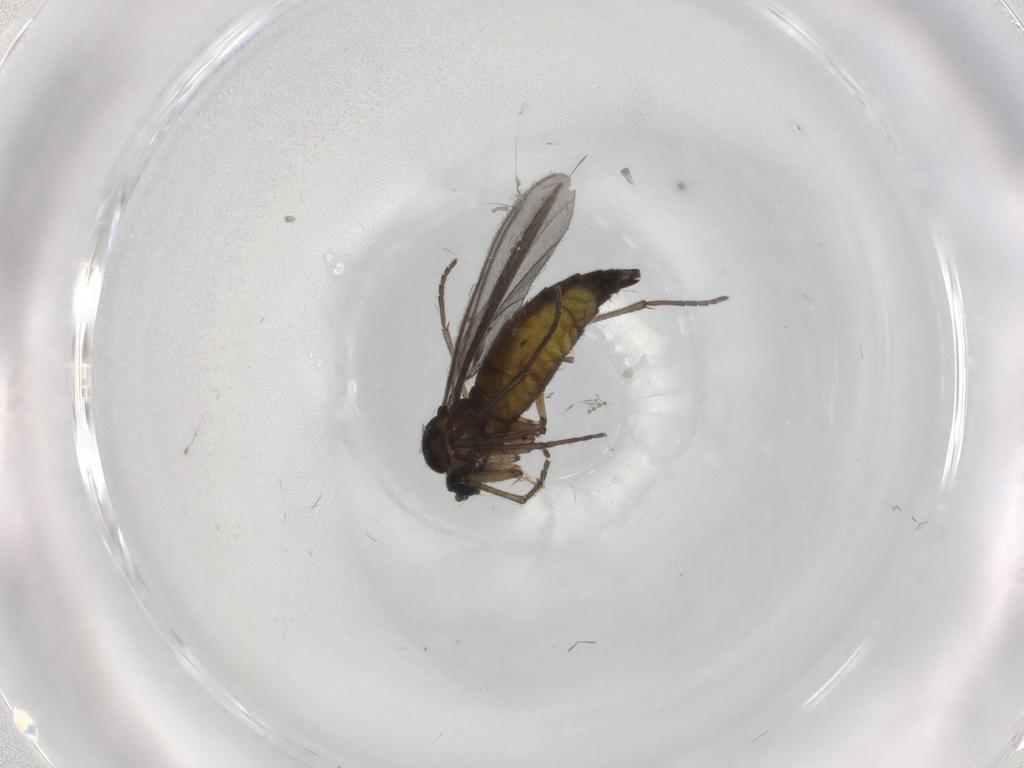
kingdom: Animalia
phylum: Arthropoda
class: Insecta
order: Diptera
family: Sciaridae
